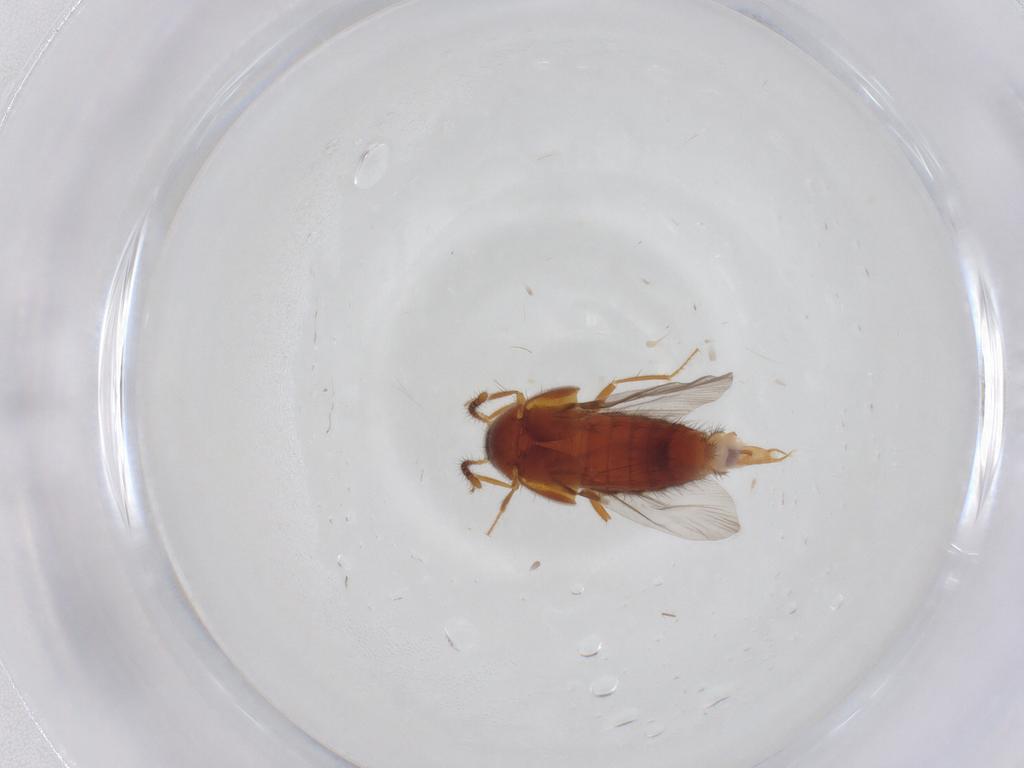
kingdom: Animalia
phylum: Arthropoda
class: Insecta
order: Coleoptera
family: Staphylinidae
